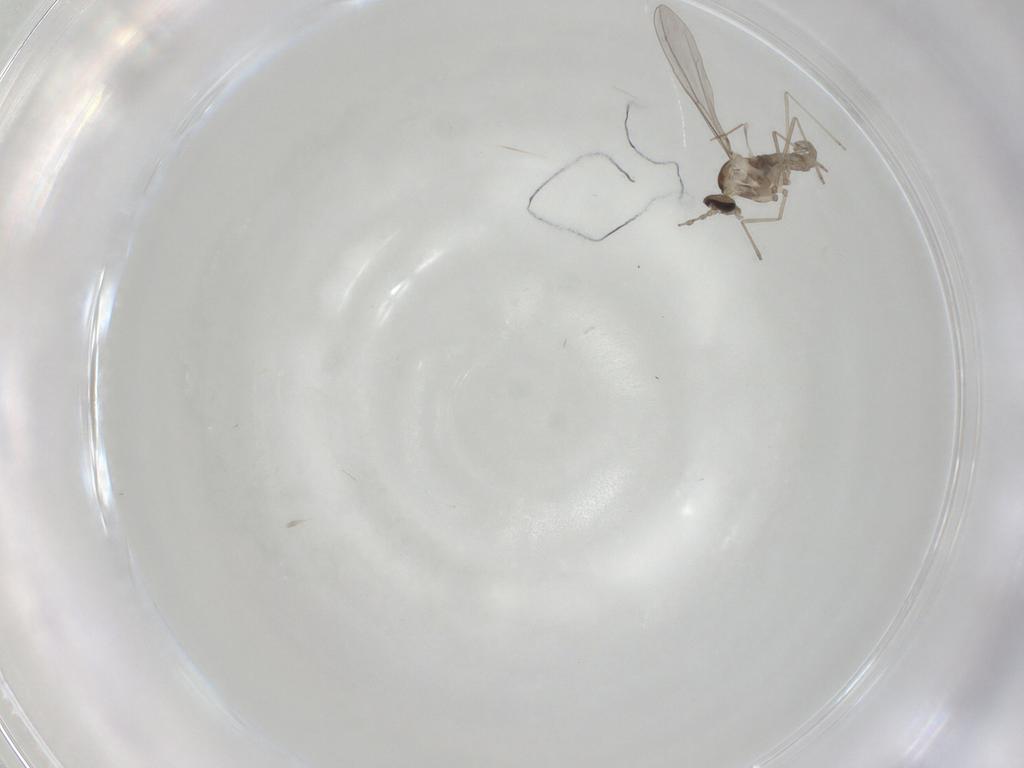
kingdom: Animalia
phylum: Arthropoda
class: Insecta
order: Diptera
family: Cecidomyiidae
